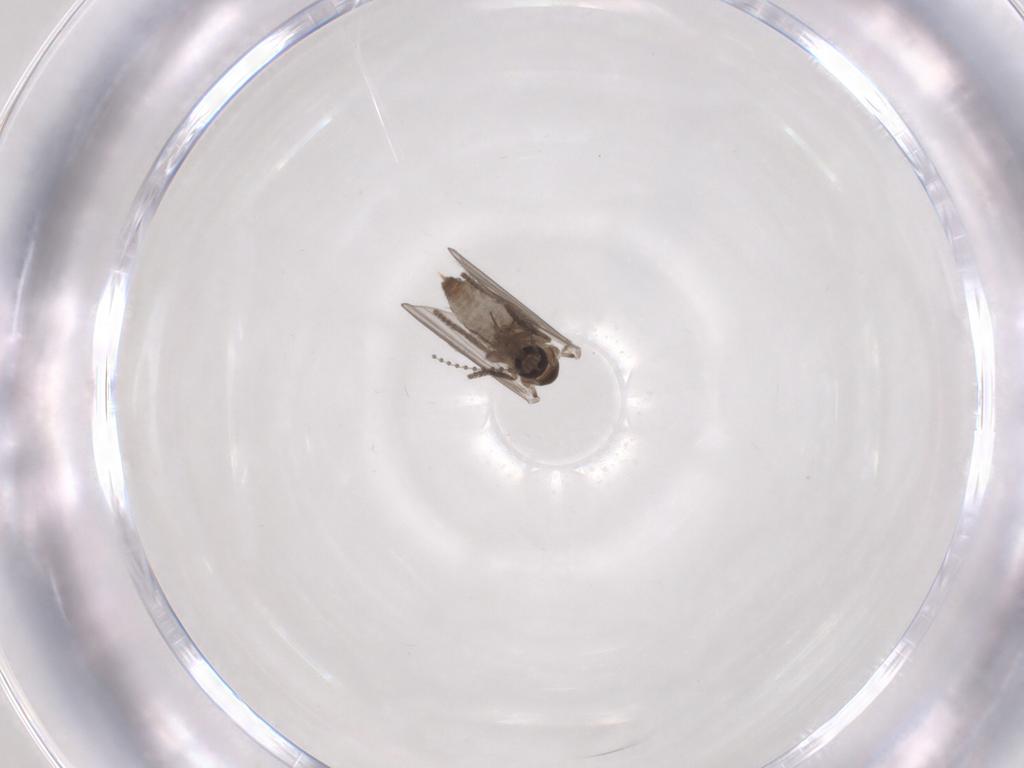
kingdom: Animalia
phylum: Arthropoda
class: Insecta
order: Diptera
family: Psychodidae
